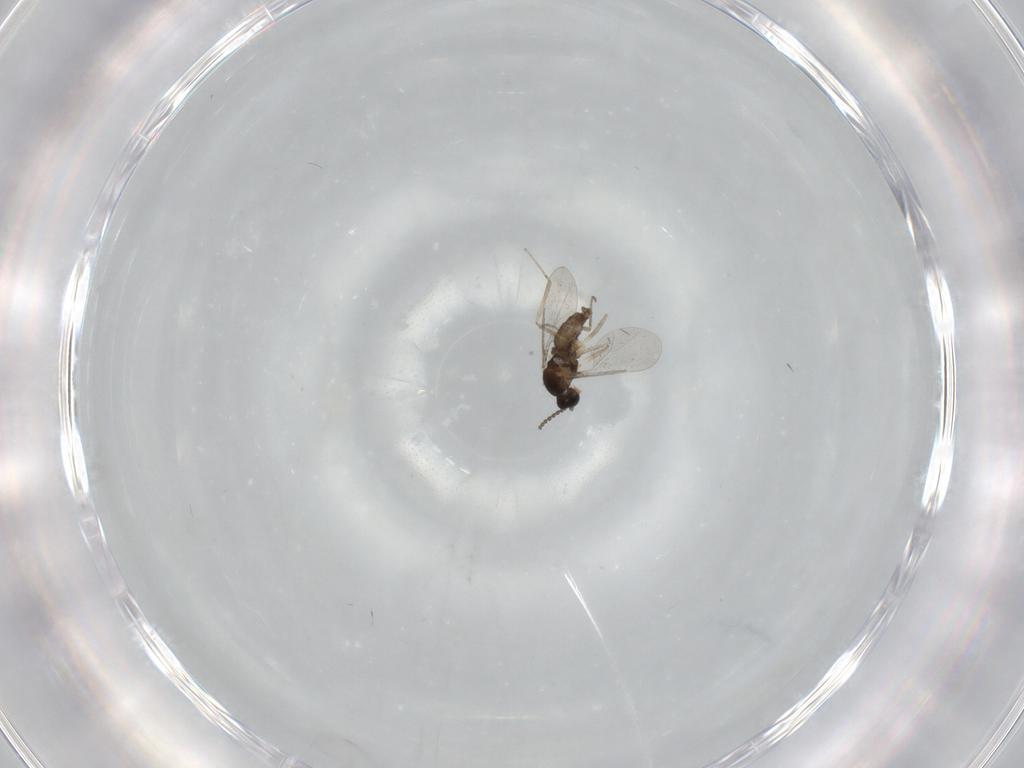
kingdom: Animalia
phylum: Arthropoda
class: Insecta
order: Diptera
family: Cecidomyiidae
